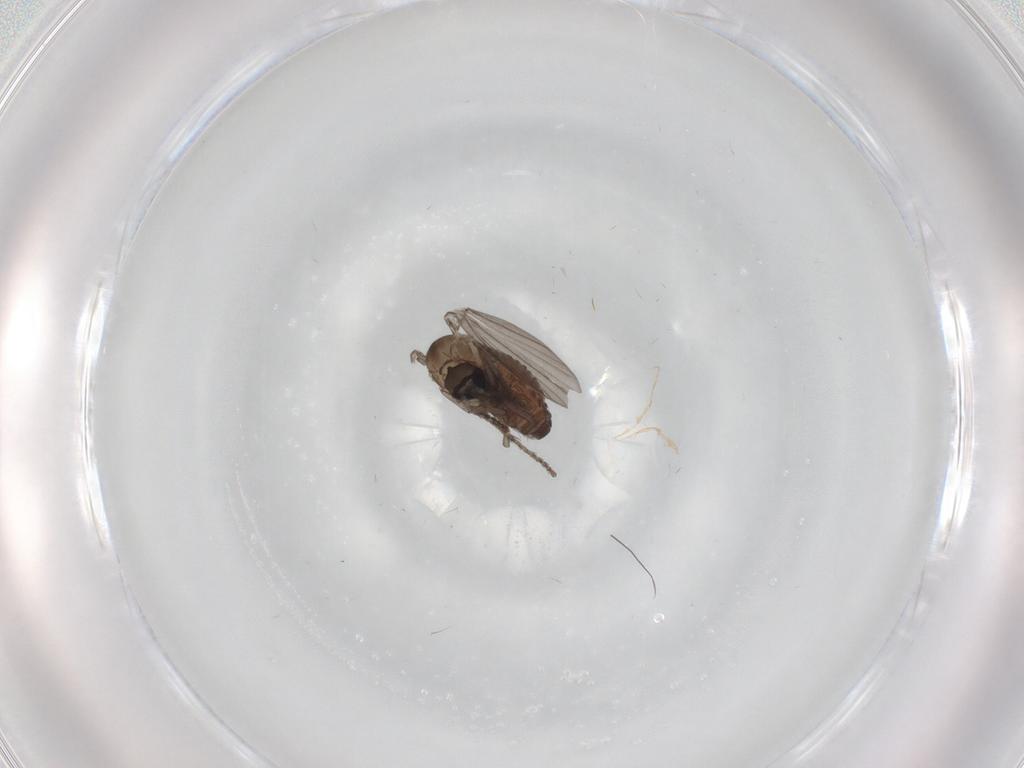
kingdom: Animalia
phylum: Arthropoda
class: Insecta
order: Diptera
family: Psychodidae
